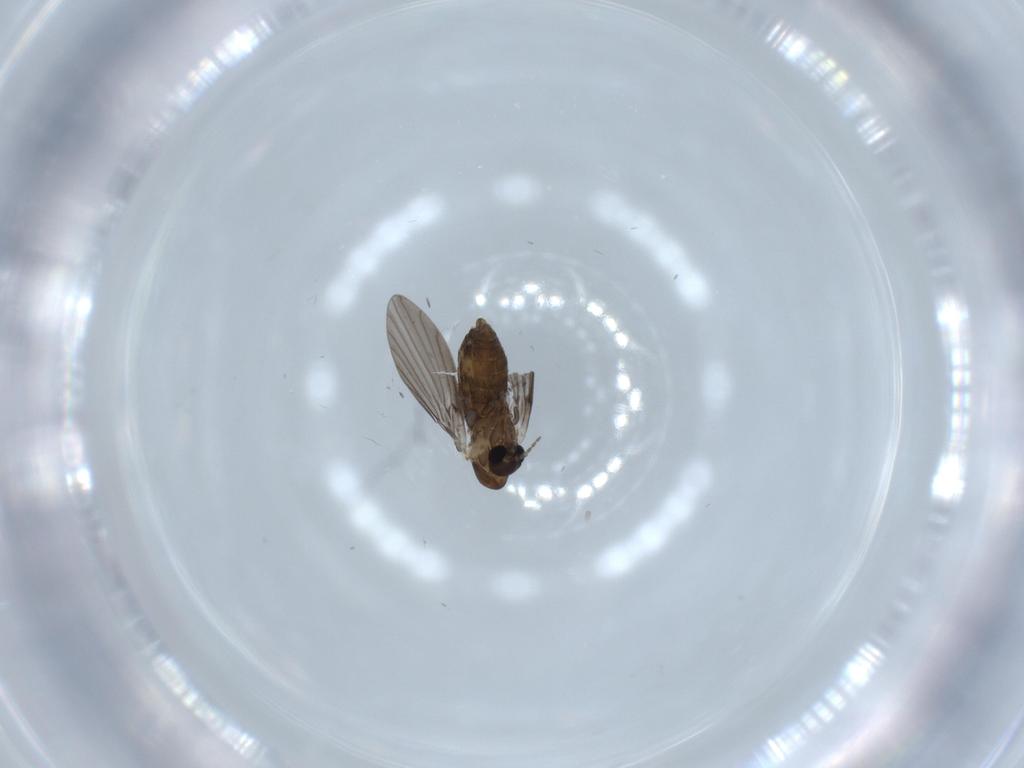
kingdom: Animalia
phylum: Arthropoda
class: Insecta
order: Diptera
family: Psychodidae
